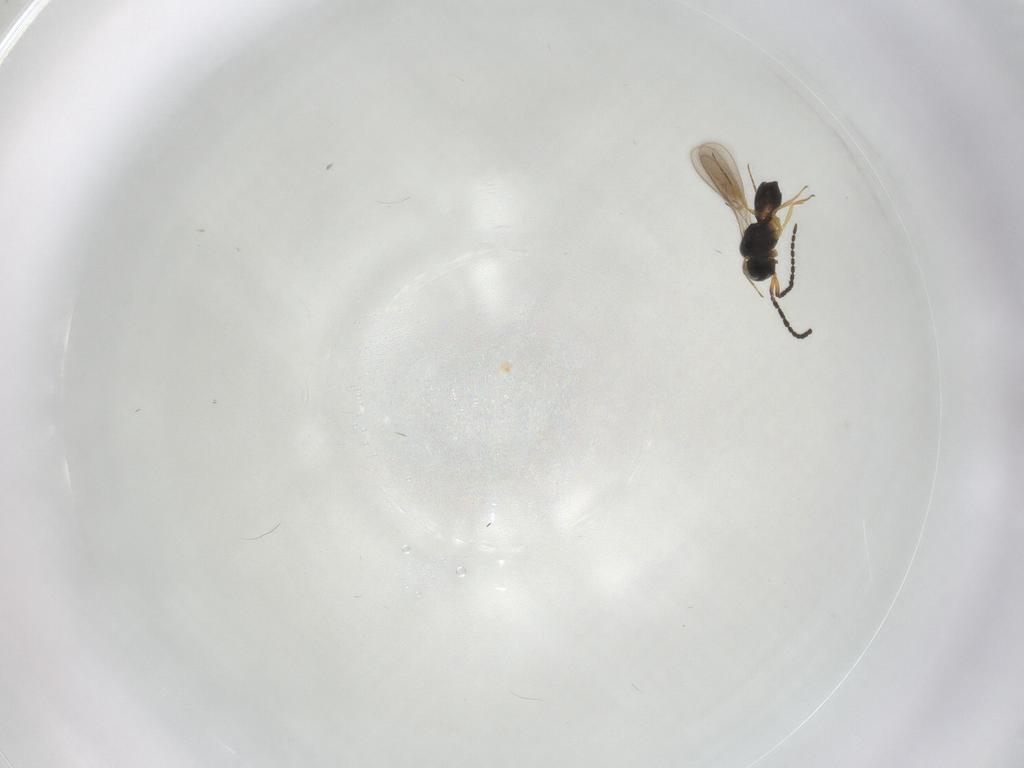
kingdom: Animalia
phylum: Arthropoda
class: Insecta
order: Hymenoptera
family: Scelionidae
